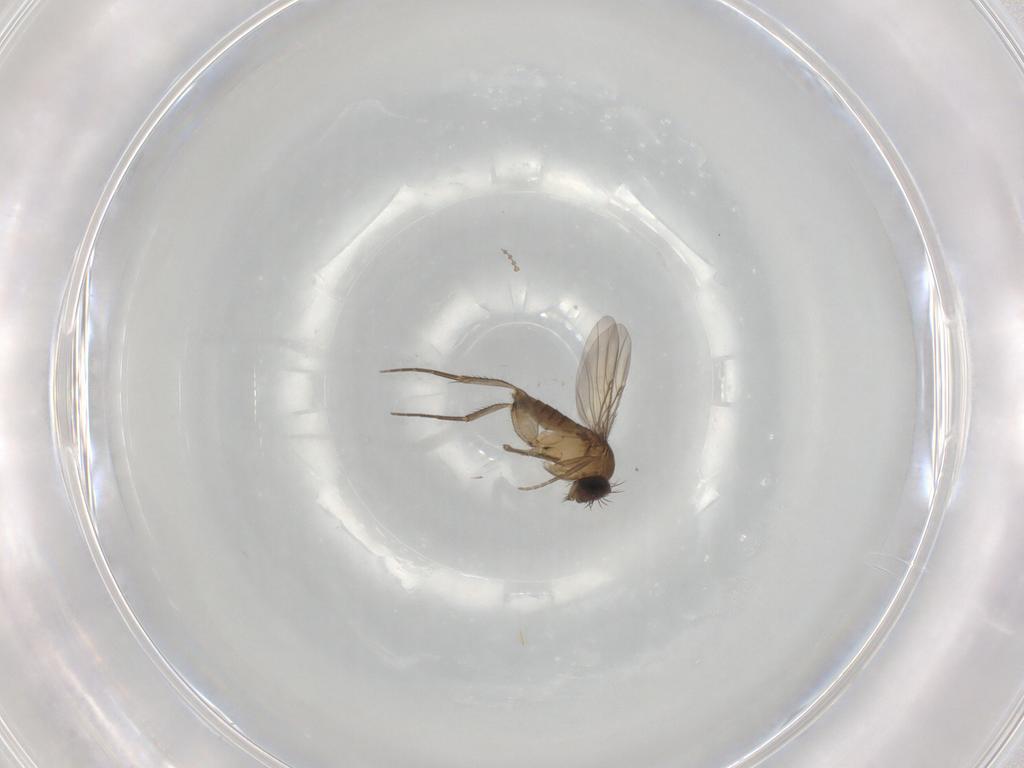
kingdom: Animalia
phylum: Arthropoda
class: Insecta
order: Diptera
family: Phoridae
